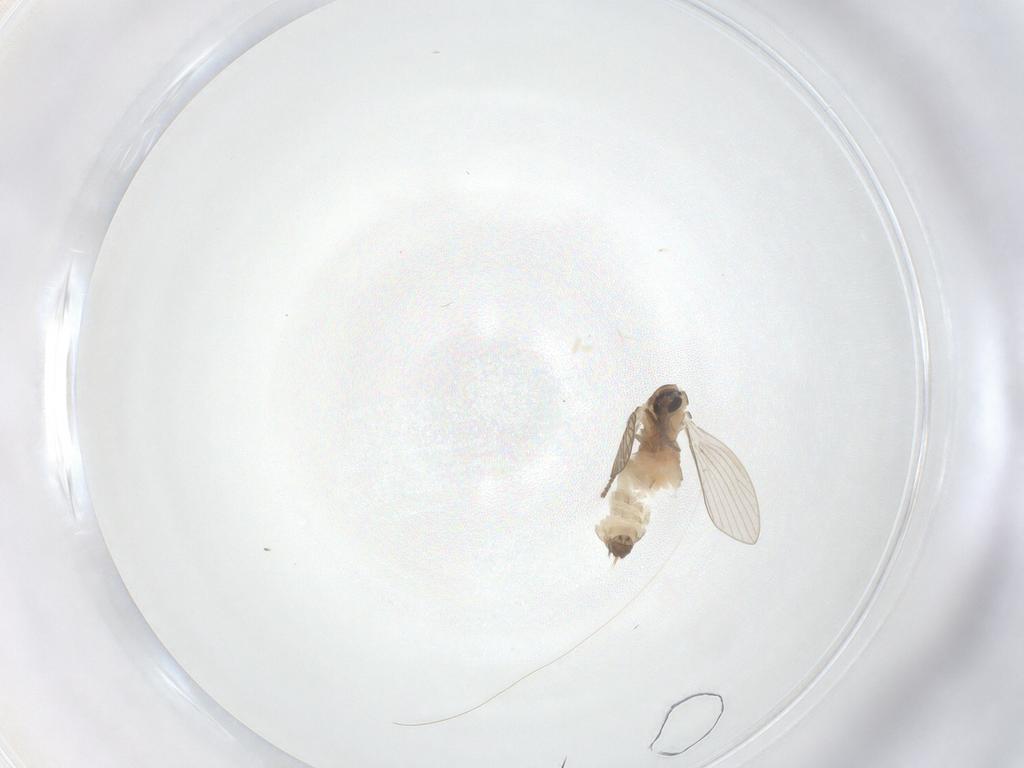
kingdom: Animalia
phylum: Arthropoda
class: Insecta
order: Diptera
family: Psychodidae
